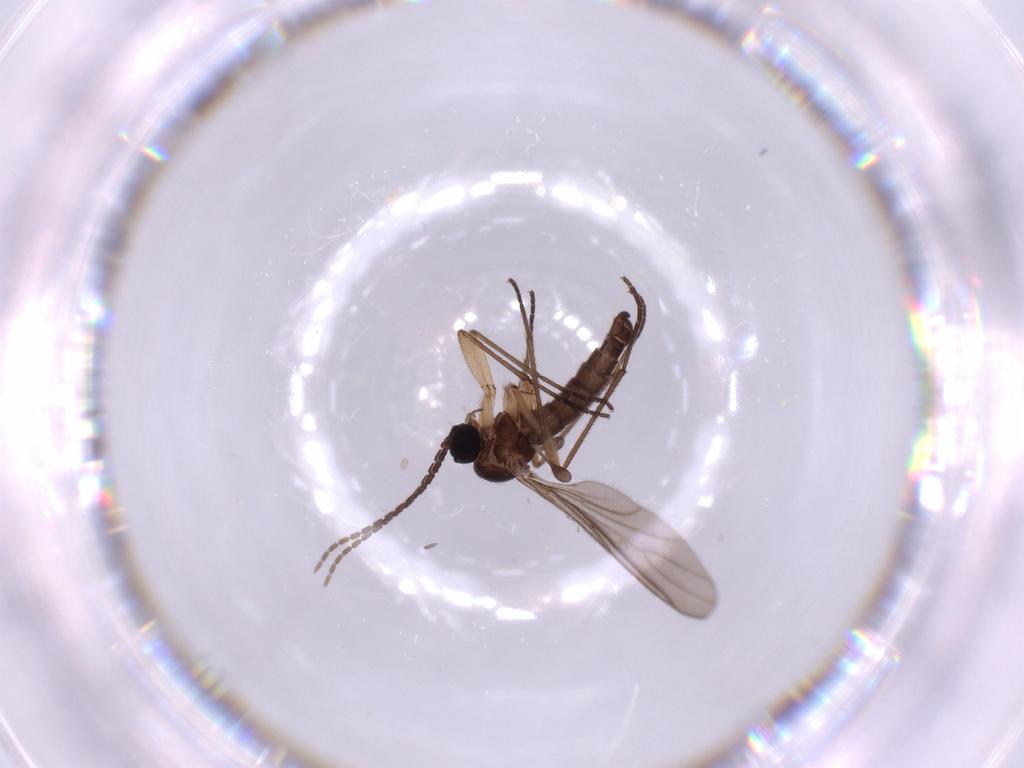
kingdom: Animalia
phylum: Arthropoda
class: Insecta
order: Diptera
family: Sciaridae
